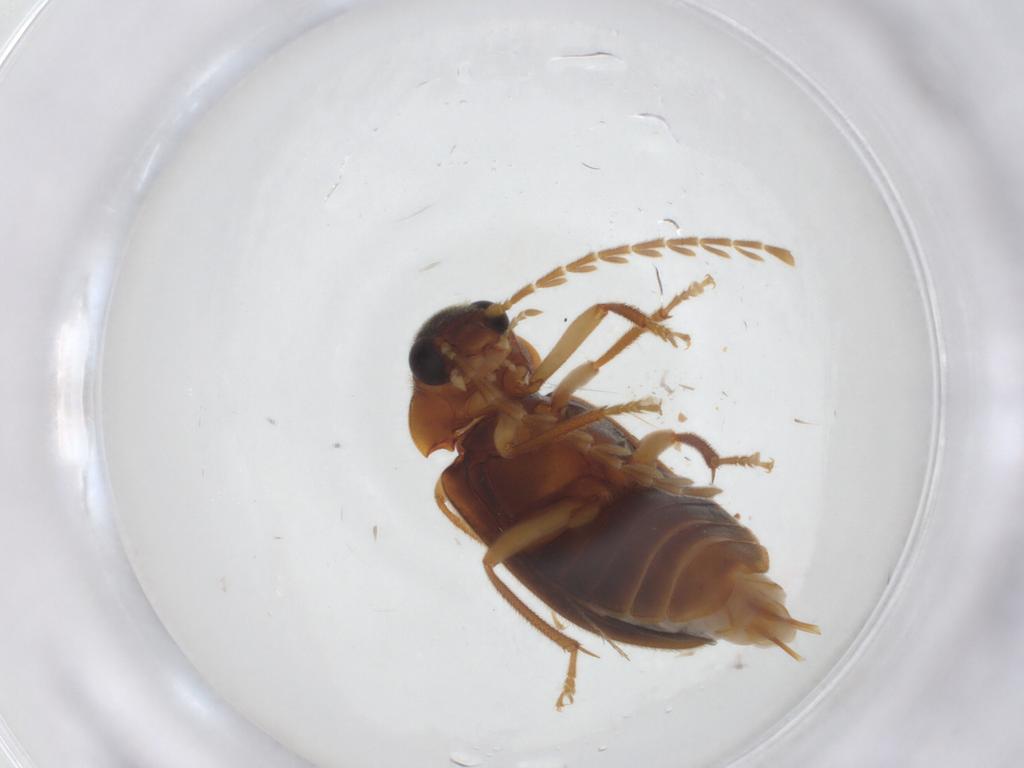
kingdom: Animalia
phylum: Arthropoda
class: Insecta
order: Coleoptera
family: Ptilodactylidae
